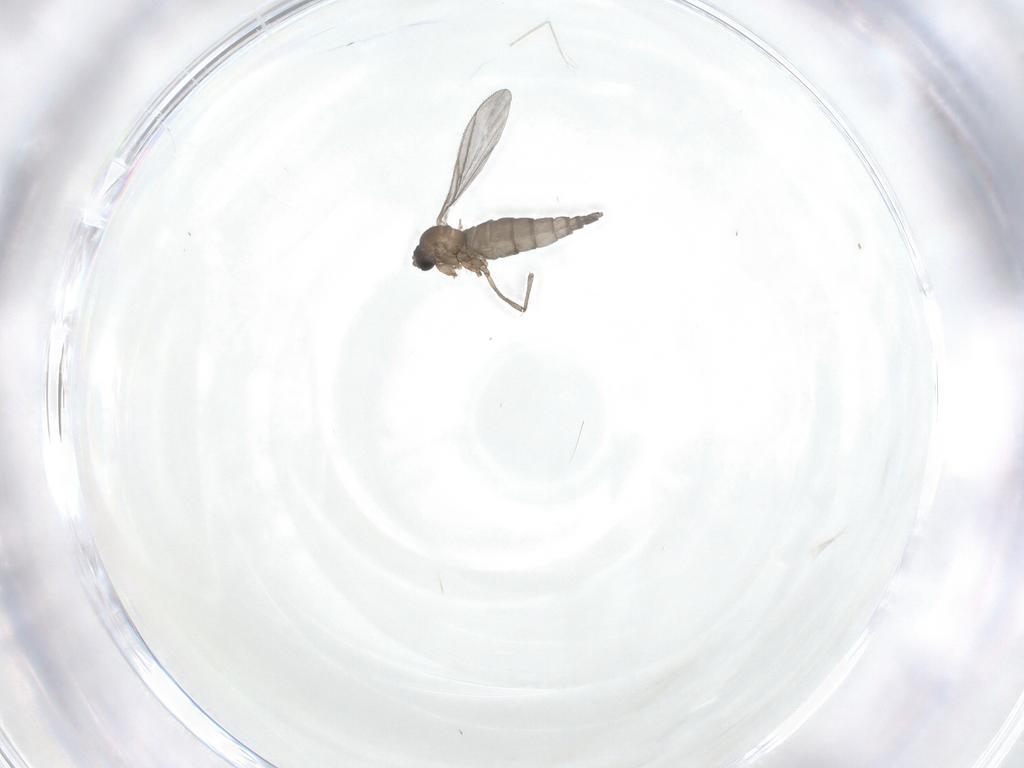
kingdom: Animalia
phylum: Arthropoda
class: Insecta
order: Diptera
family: Sciaridae
